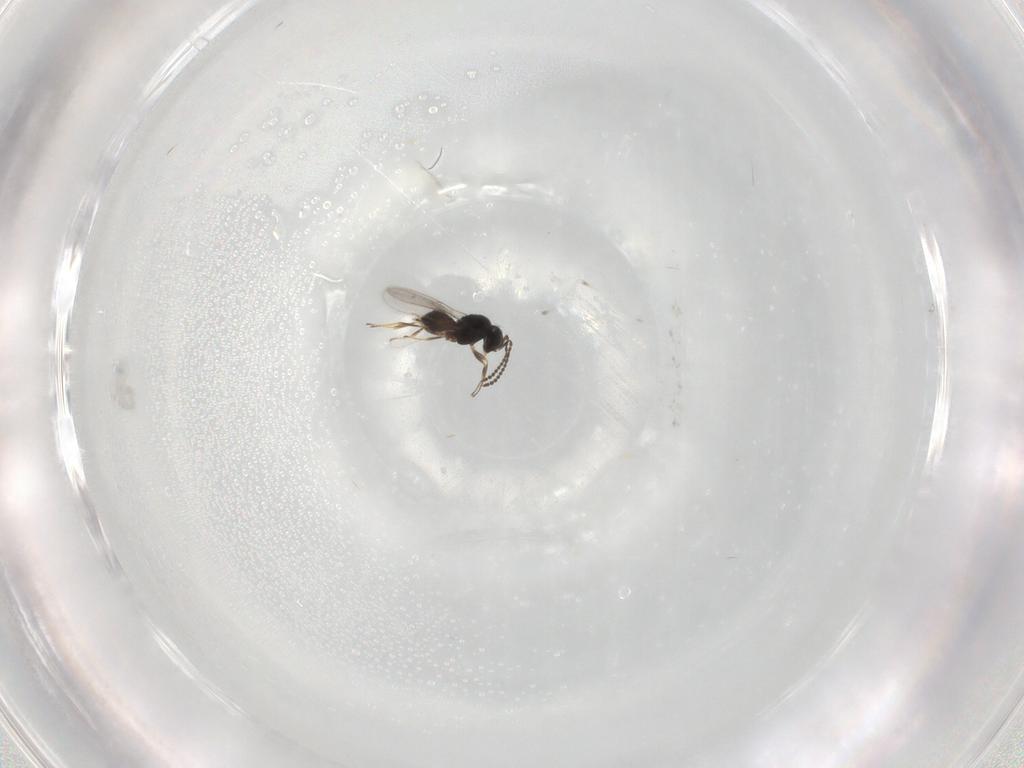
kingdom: Animalia
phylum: Arthropoda
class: Insecta
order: Hymenoptera
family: Scelionidae
